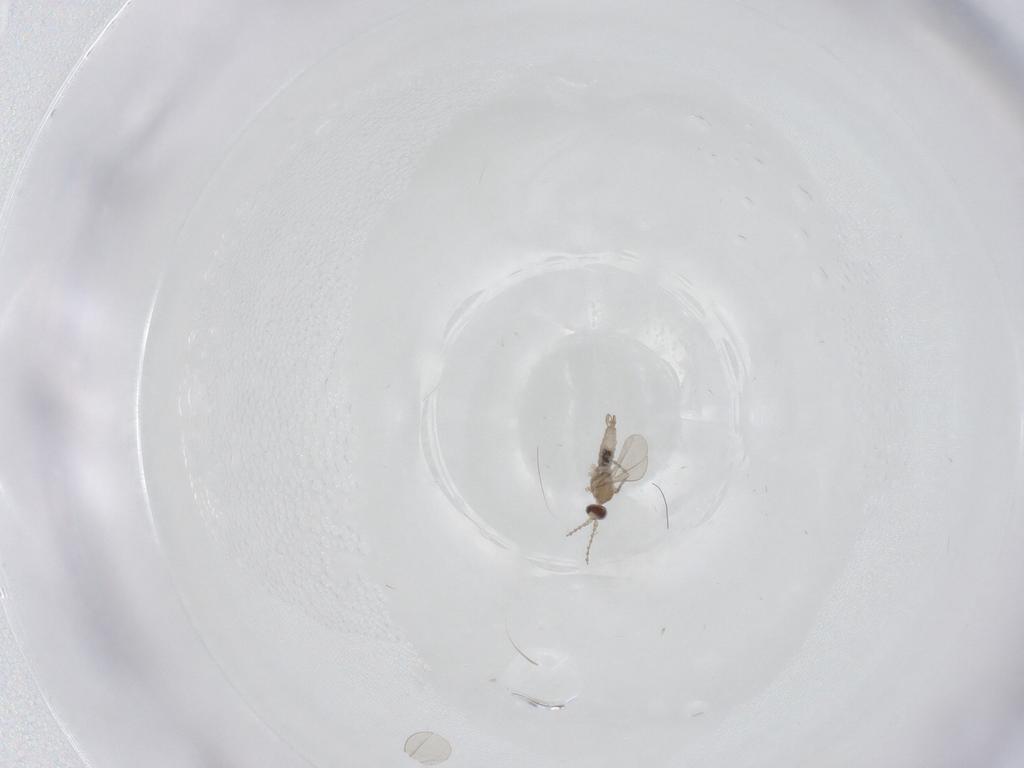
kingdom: Animalia
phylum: Arthropoda
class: Insecta
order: Diptera
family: Cecidomyiidae
